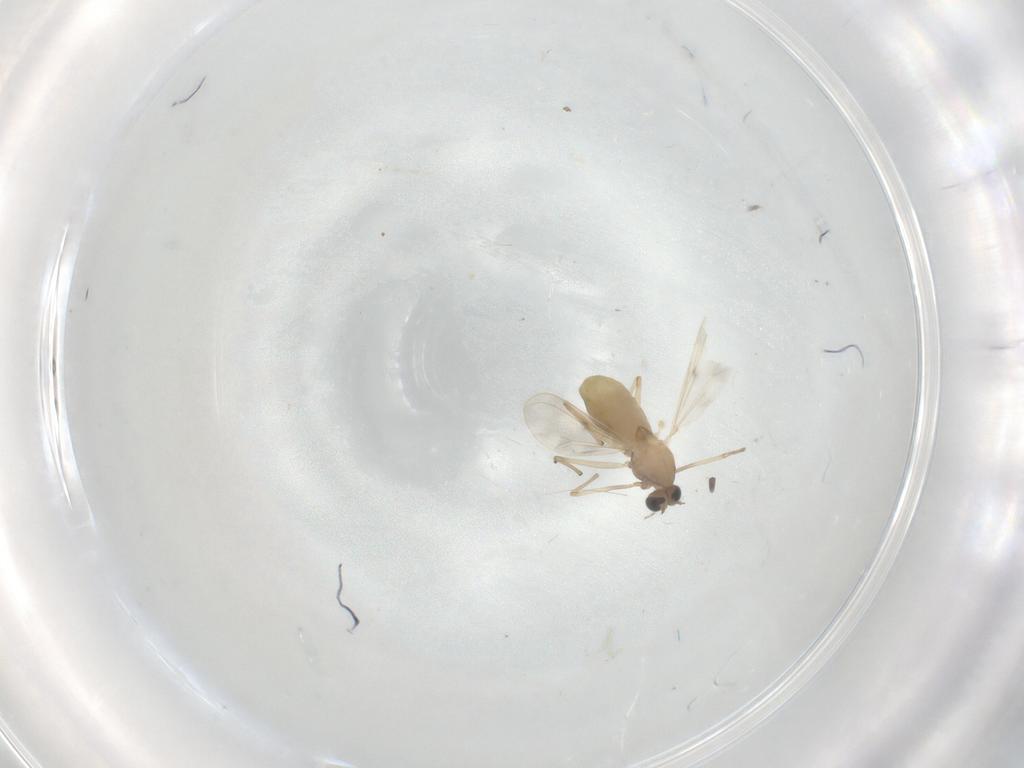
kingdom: Animalia
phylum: Arthropoda
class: Insecta
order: Diptera
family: Chironomidae
